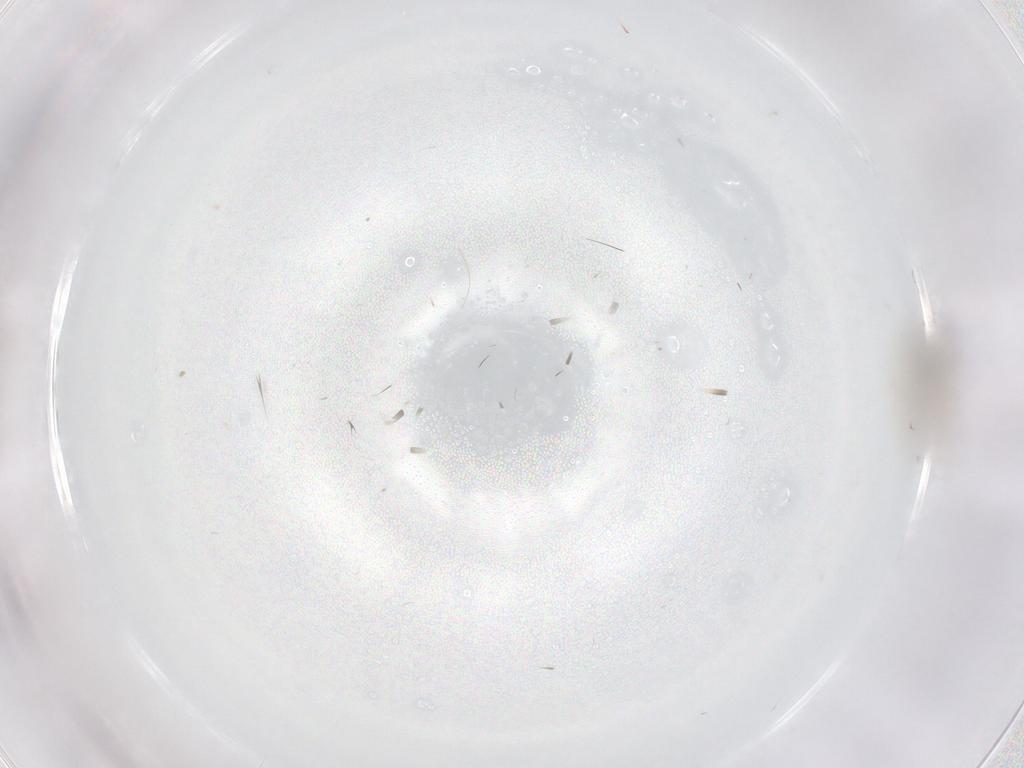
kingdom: Animalia
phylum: Arthropoda
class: Insecta
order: Diptera
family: Cecidomyiidae
